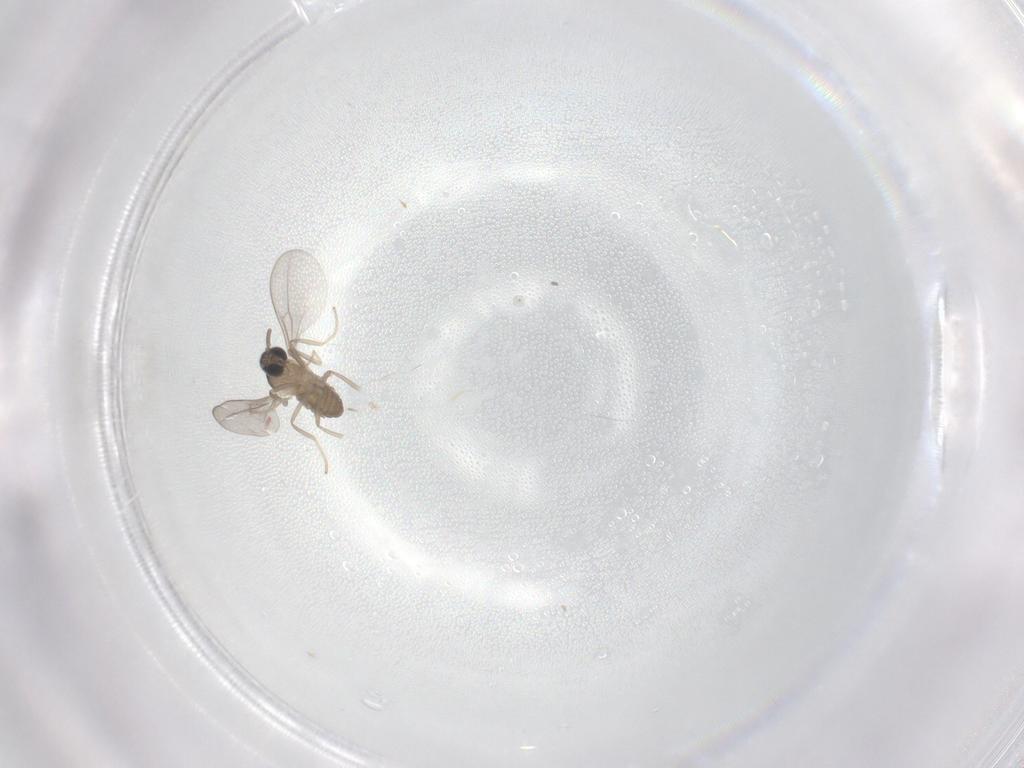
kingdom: Animalia
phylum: Arthropoda
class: Insecta
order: Diptera
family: Cecidomyiidae
